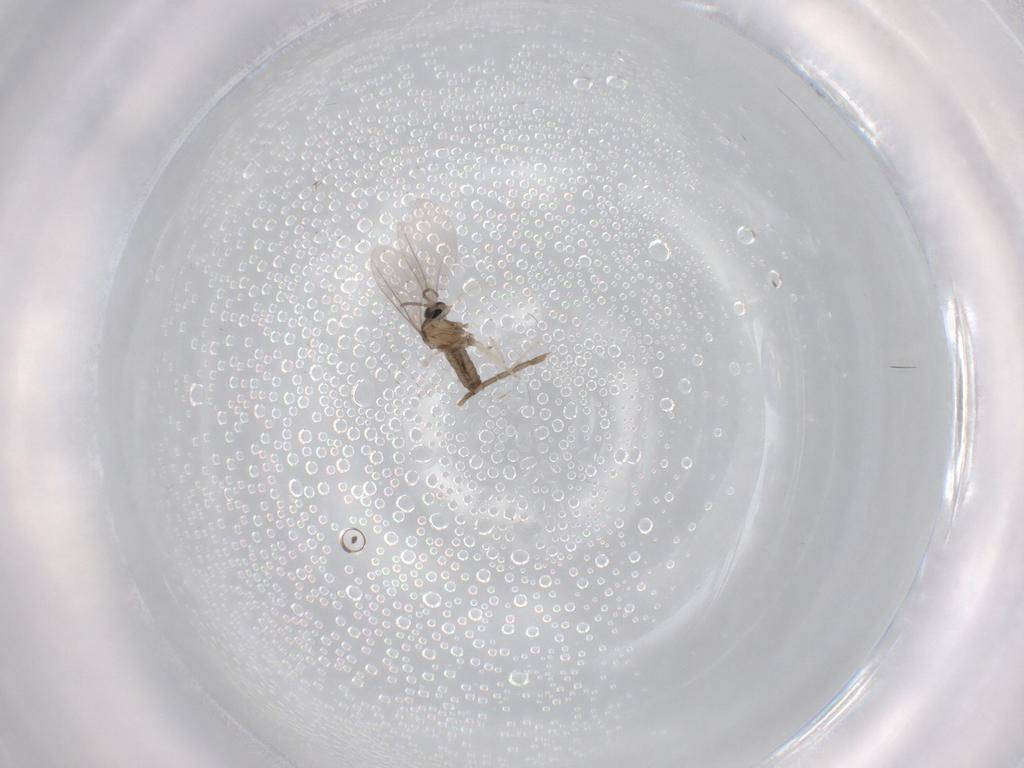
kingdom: Animalia
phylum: Arthropoda
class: Insecta
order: Diptera
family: Cecidomyiidae
